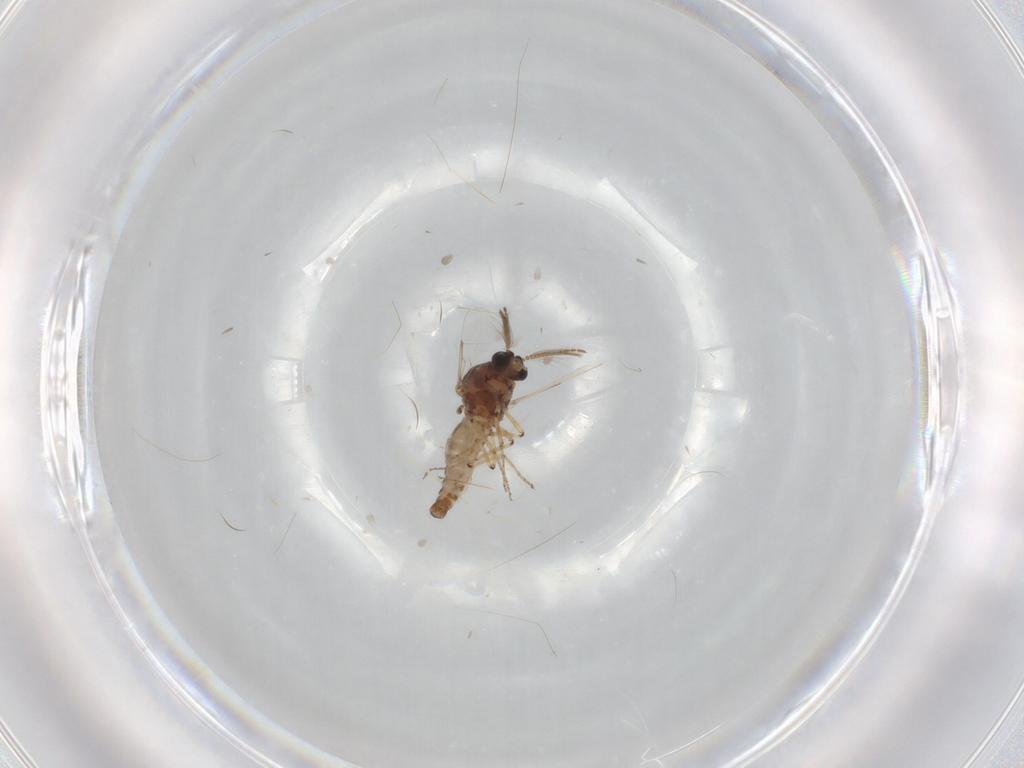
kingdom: Animalia
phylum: Arthropoda
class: Insecta
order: Diptera
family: Ceratopogonidae
